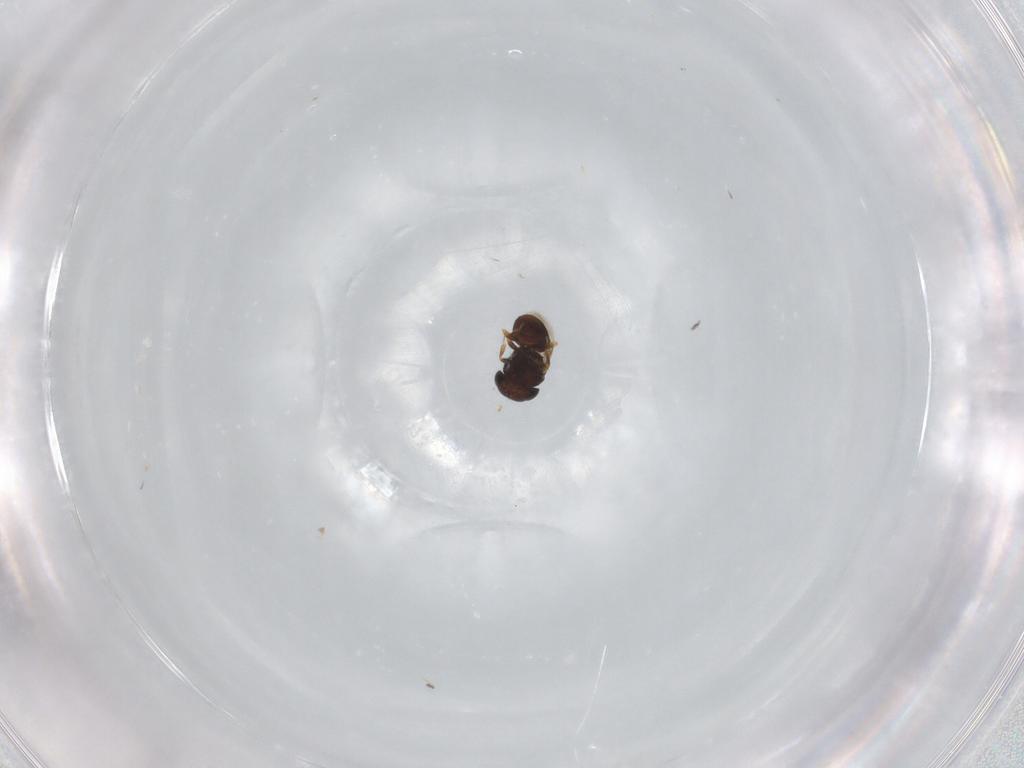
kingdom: Animalia
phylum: Arthropoda
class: Insecta
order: Hymenoptera
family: Scelionidae
